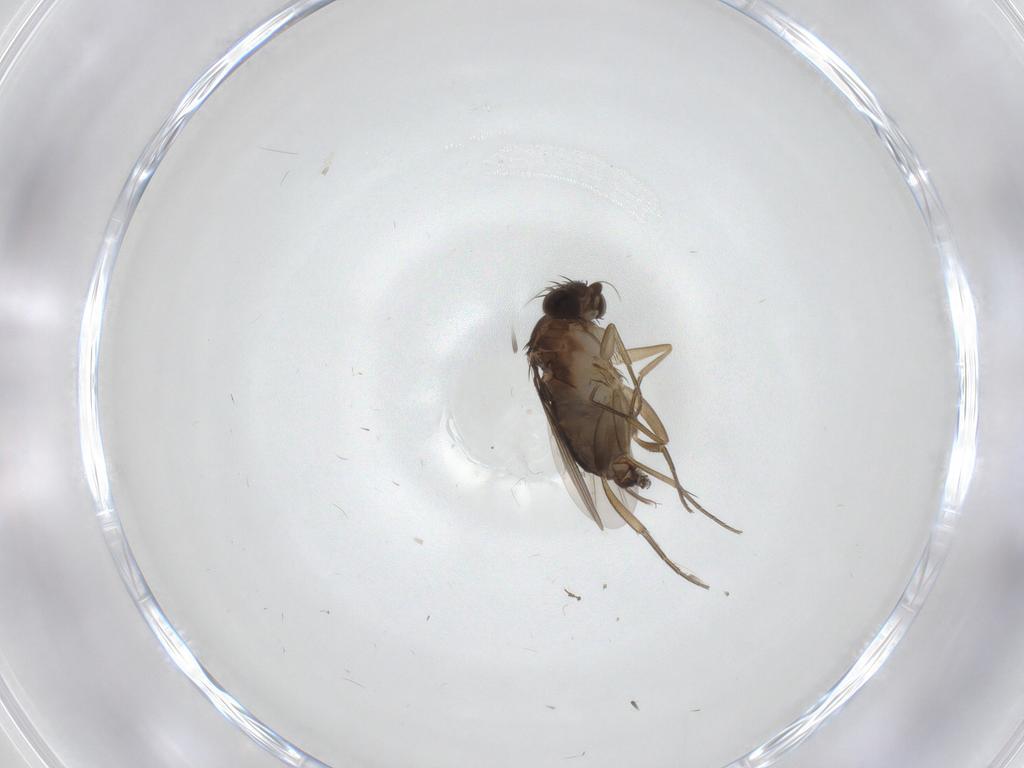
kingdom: Animalia
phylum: Arthropoda
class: Insecta
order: Diptera
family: Phoridae
